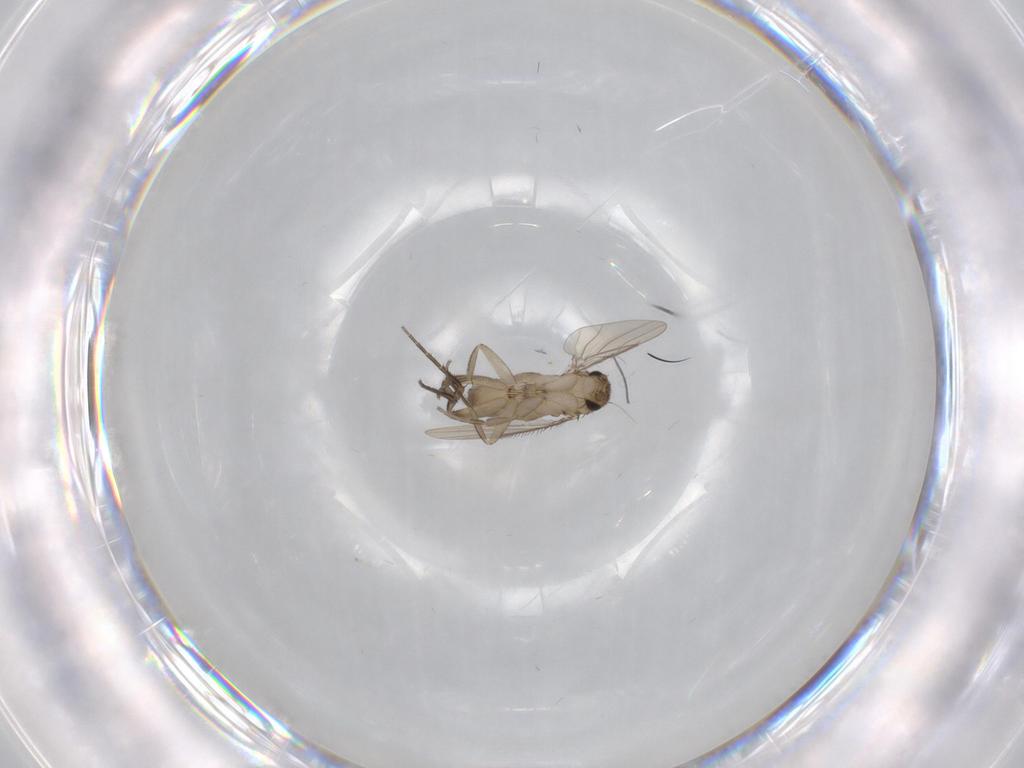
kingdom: Animalia
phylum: Arthropoda
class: Insecta
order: Diptera
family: Phoridae
